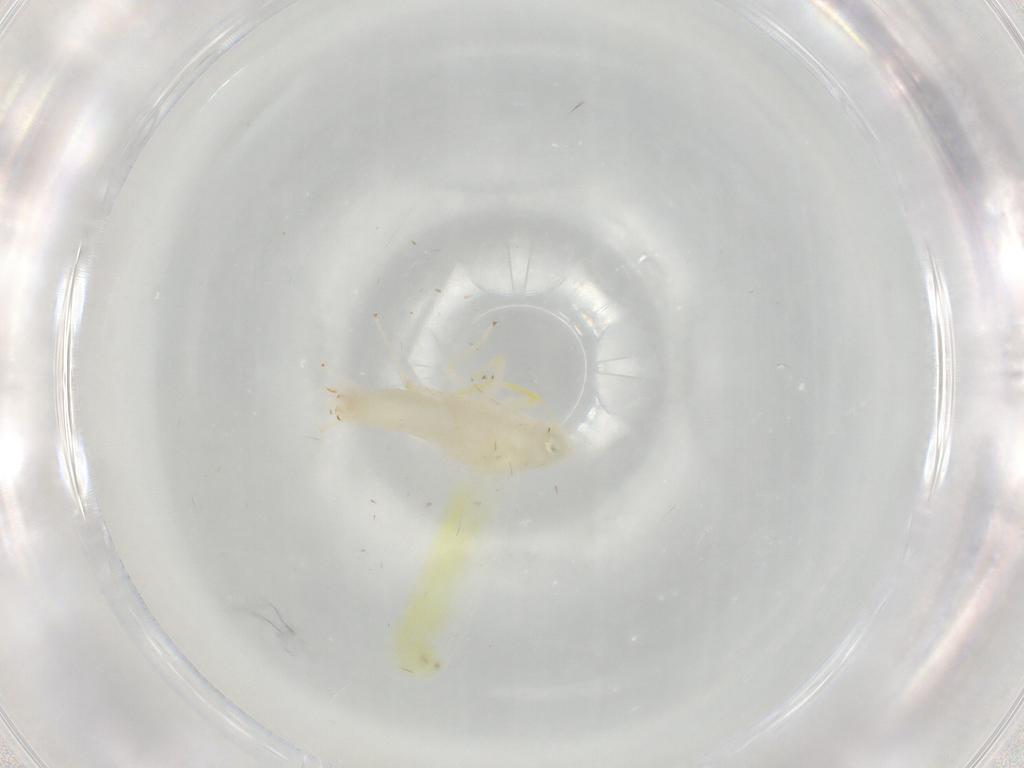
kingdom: Animalia
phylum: Arthropoda
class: Insecta
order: Hemiptera
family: Cicadellidae
